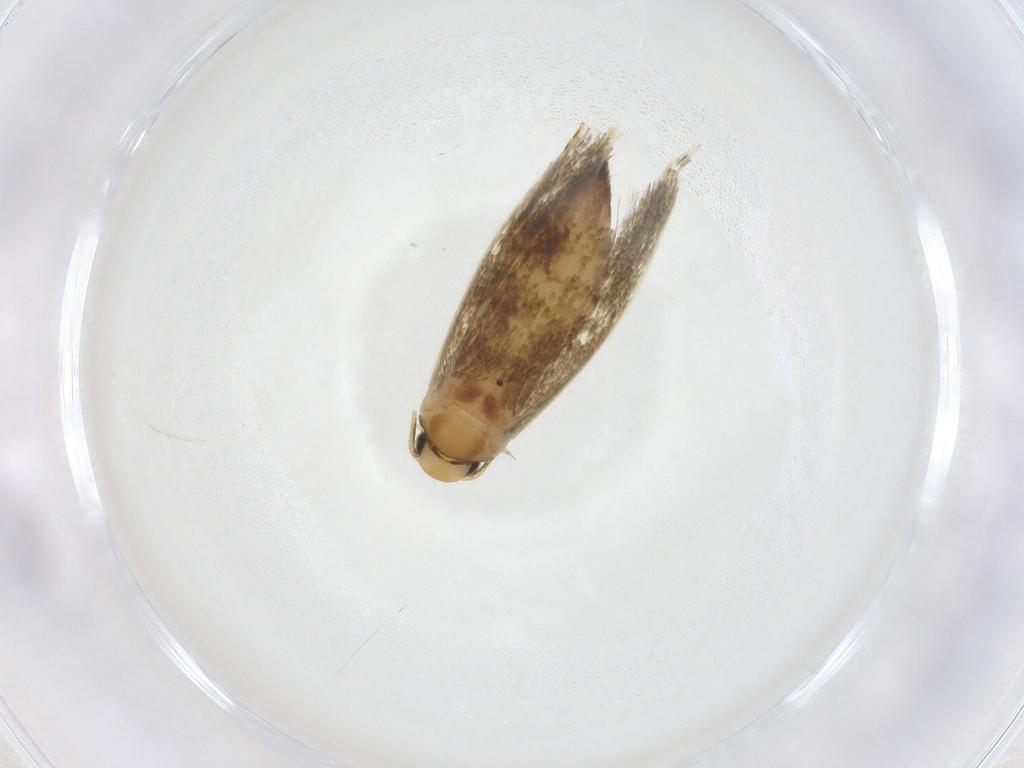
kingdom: Animalia
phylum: Arthropoda
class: Insecta
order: Lepidoptera
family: Tineidae
